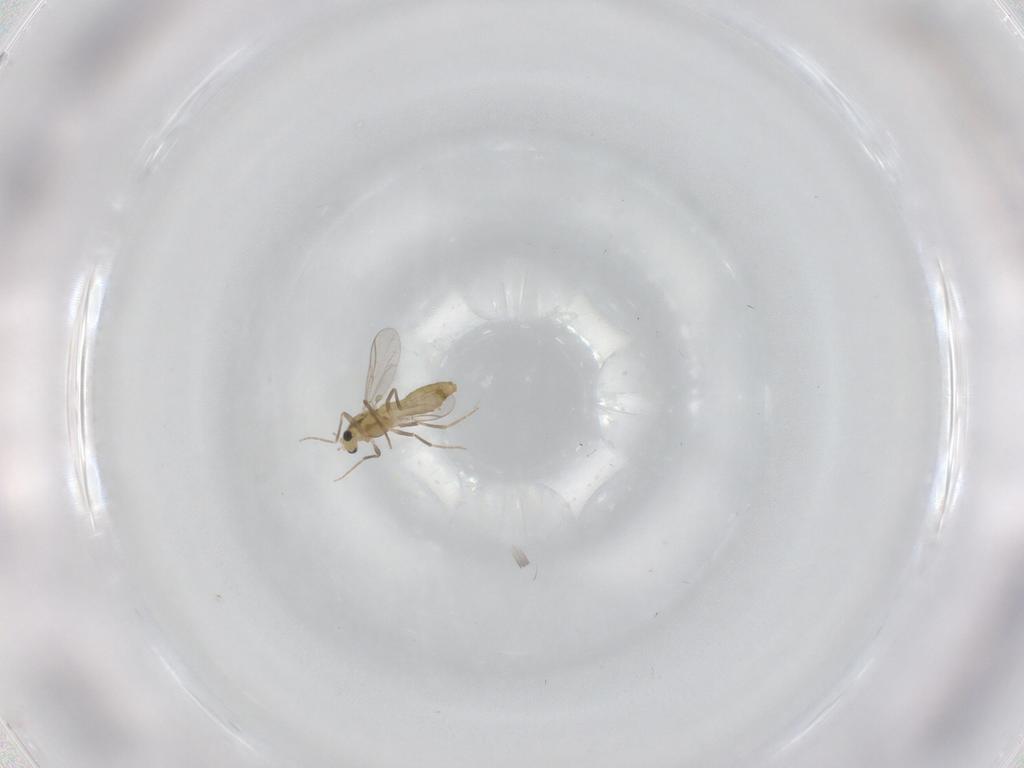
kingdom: Animalia
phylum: Arthropoda
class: Insecta
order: Diptera
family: Chironomidae
